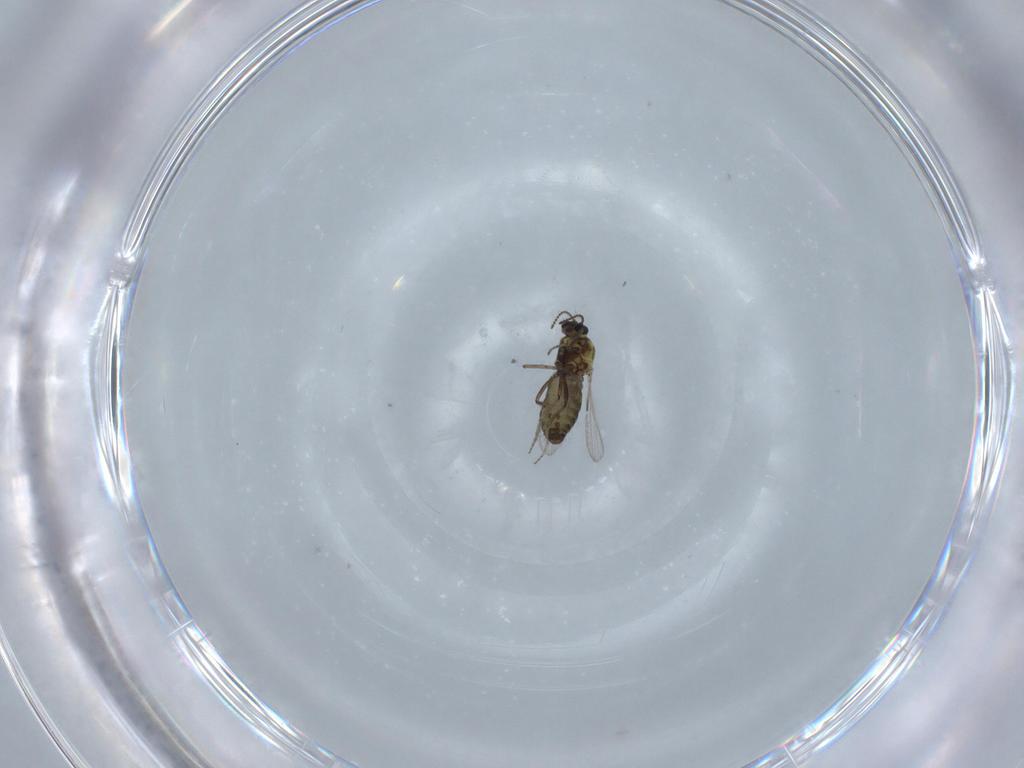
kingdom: Animalia
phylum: Arthropoda
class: Insecta
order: Diptera
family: Ceratopogonidae
